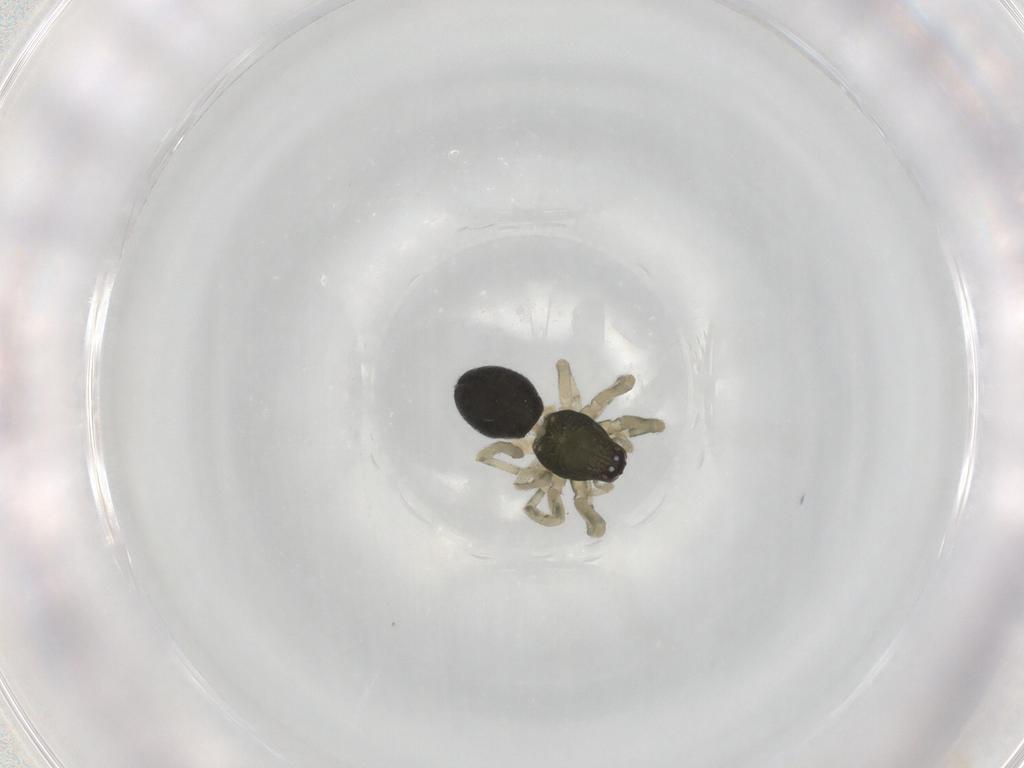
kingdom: Animalia
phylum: Arthropoda
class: Arachnida
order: Araneae
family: Trachelidae
